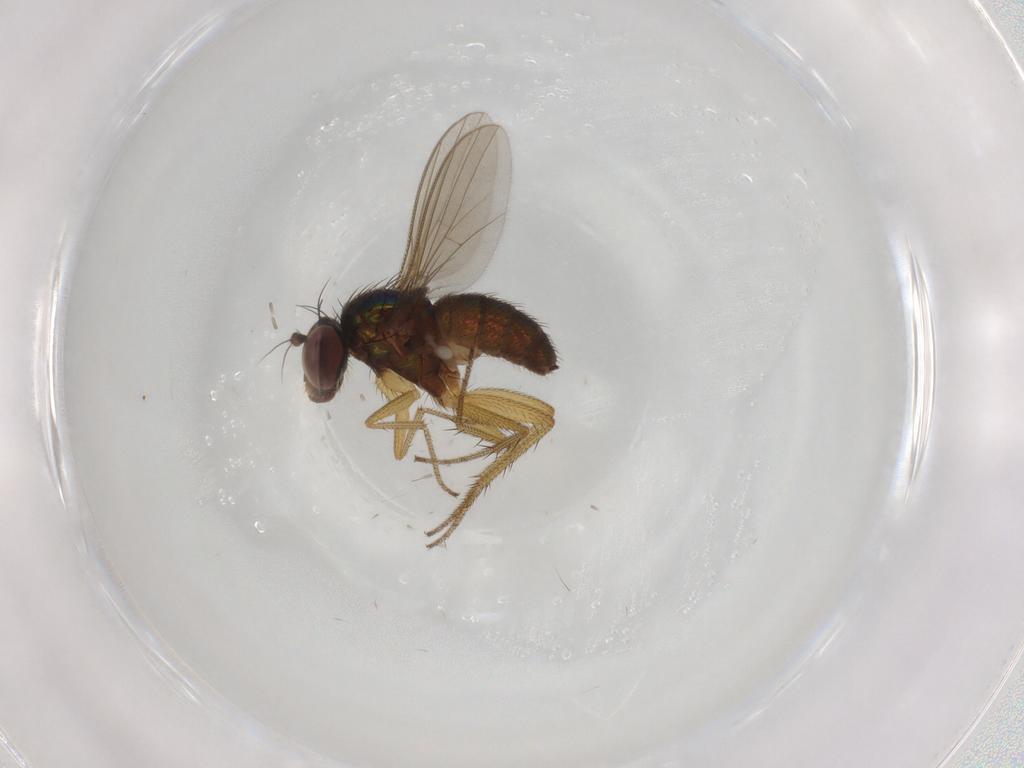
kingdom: Animalia
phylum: Arthropoda
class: Insecta
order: Diptera
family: Dolichopodidae
